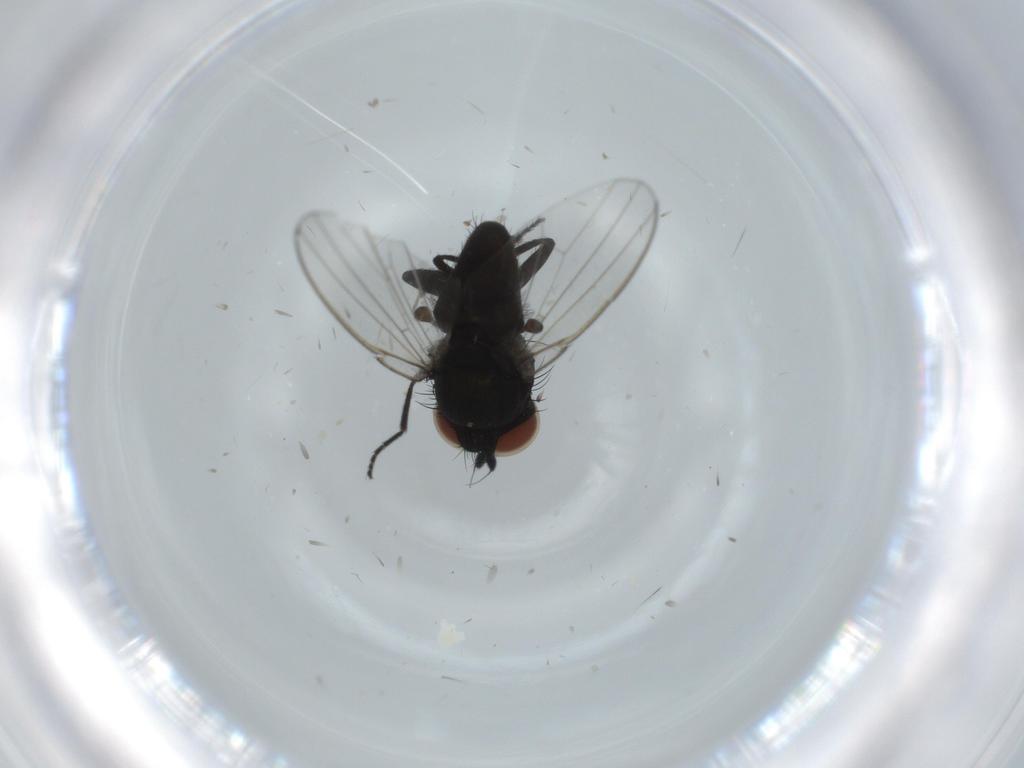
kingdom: Animalia
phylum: Arthropoda
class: Insecta
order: Diptera
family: Milichiidae
